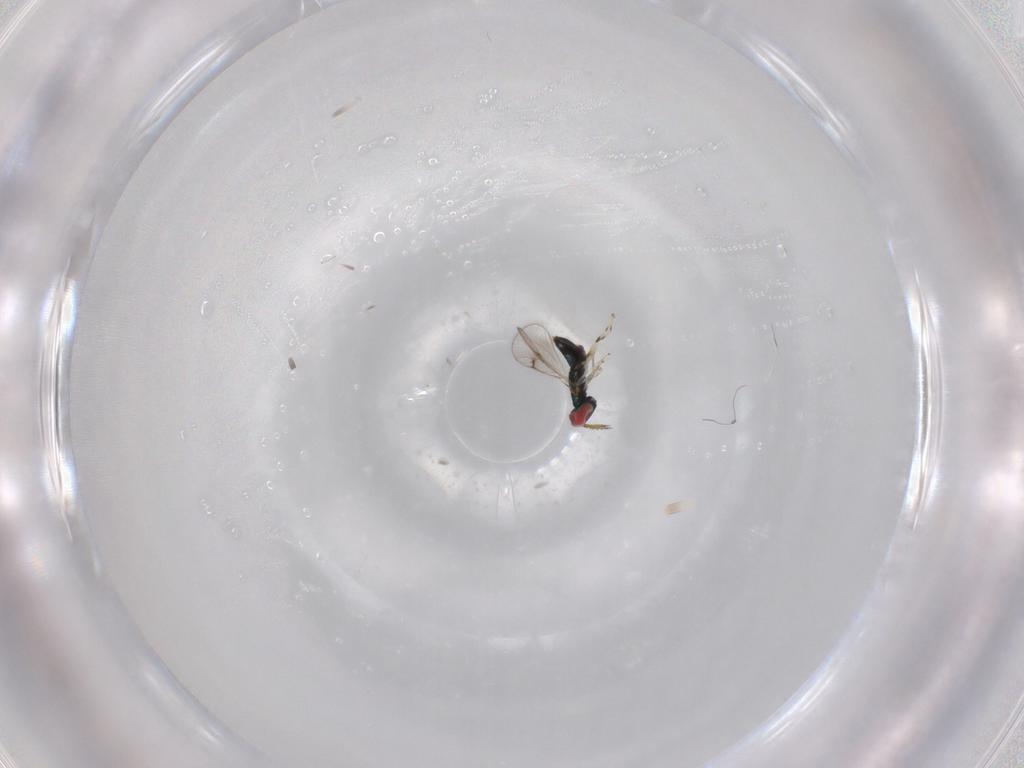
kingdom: Animalia
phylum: Arthropoda
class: Insecta
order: Hymenoptera
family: Eulophidae
